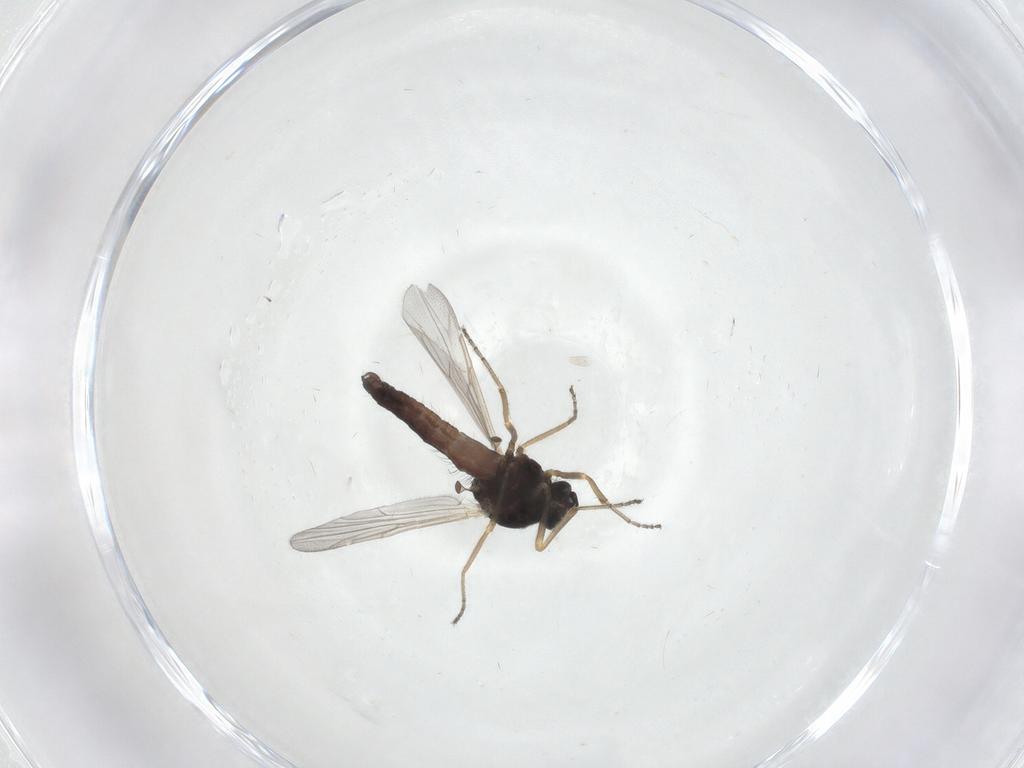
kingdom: Animalia
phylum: Arthropoda
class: Insecta
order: Diptera
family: Ceratopogonidae
